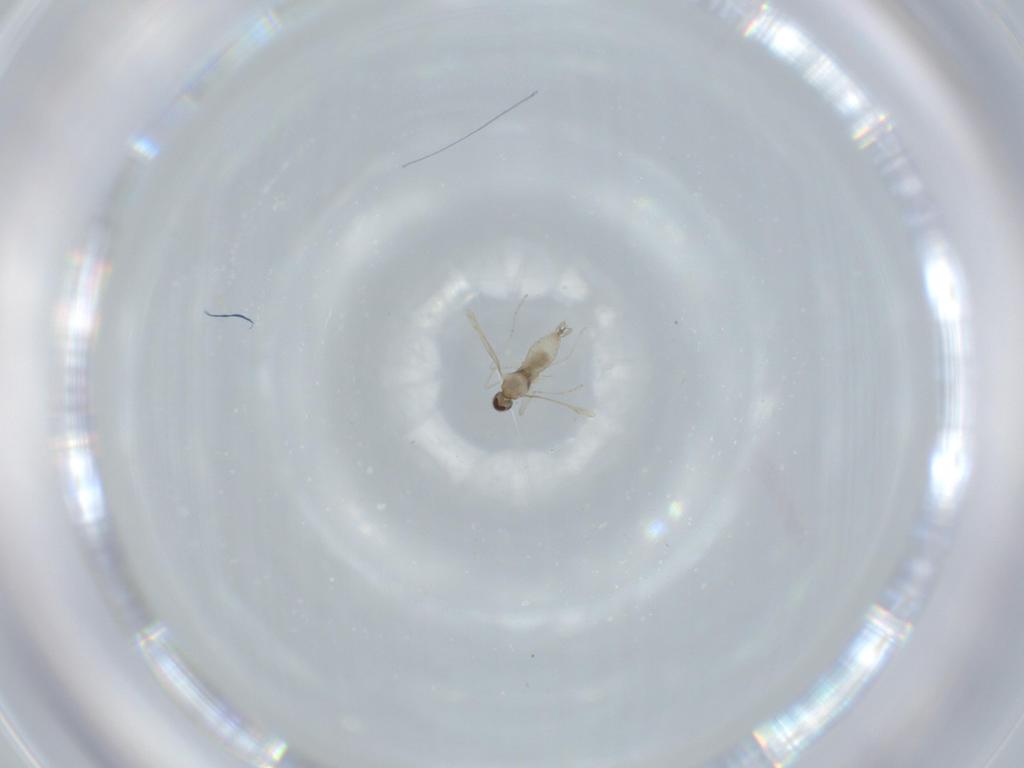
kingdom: Animalia
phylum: Arthropoda
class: Insecta
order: Diptera
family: Cecidomyiidae
